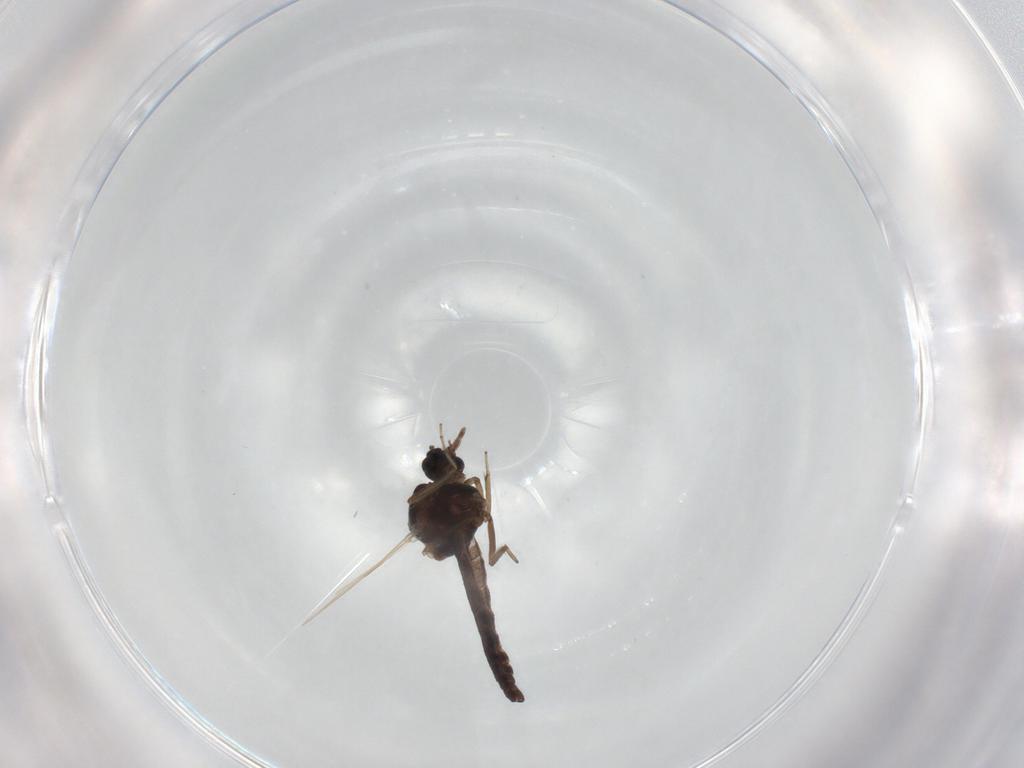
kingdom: Animalia
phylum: Arthropoda
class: Insecta
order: Diptera
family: Ceratopogonidae
